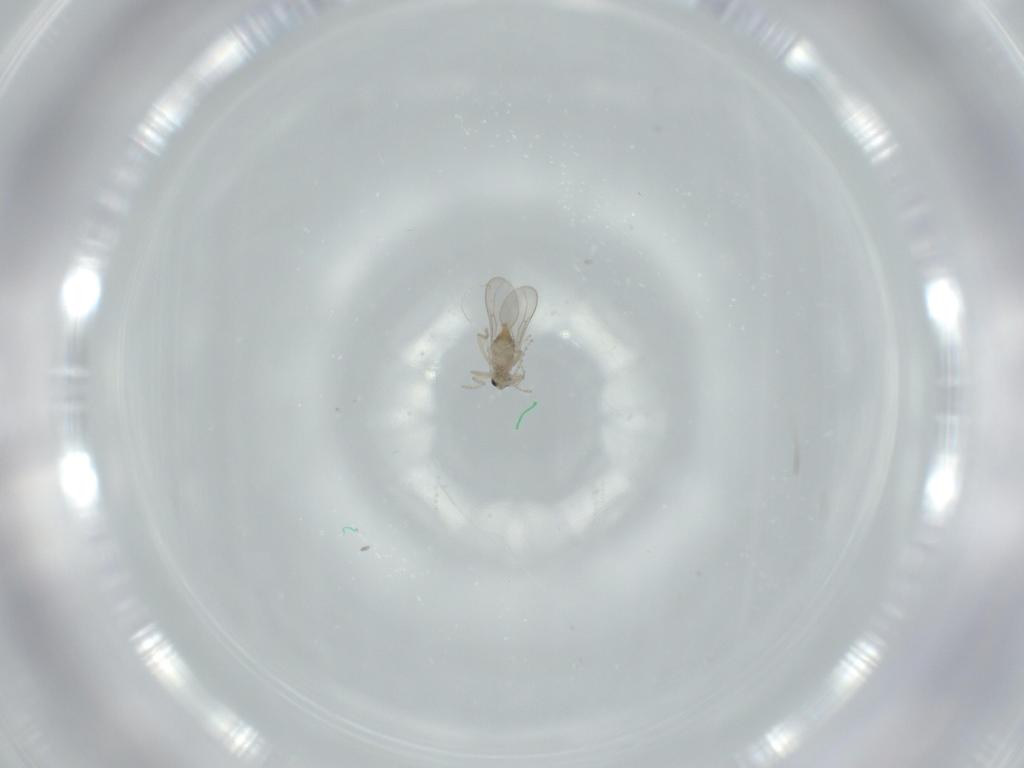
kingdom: Animalia
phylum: Arthropoda
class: Insecta
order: Diptera
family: Cecidomyiidae
